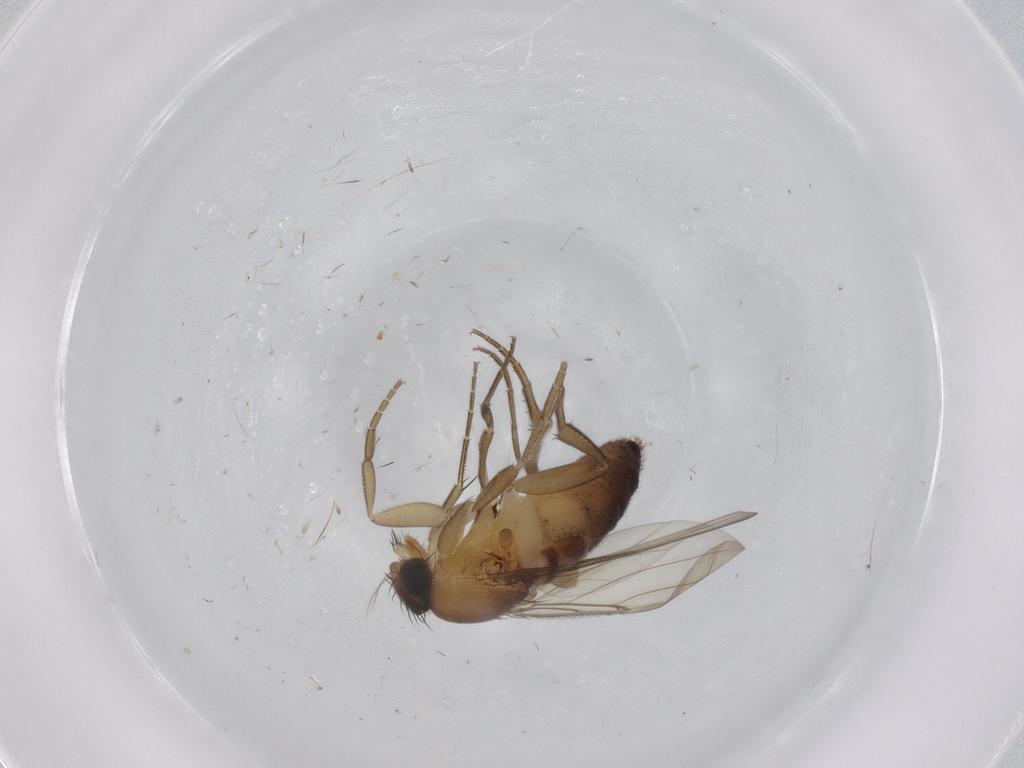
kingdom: Animalia
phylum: Arthropoda
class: Insecta
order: Diptera
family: Phoridae
